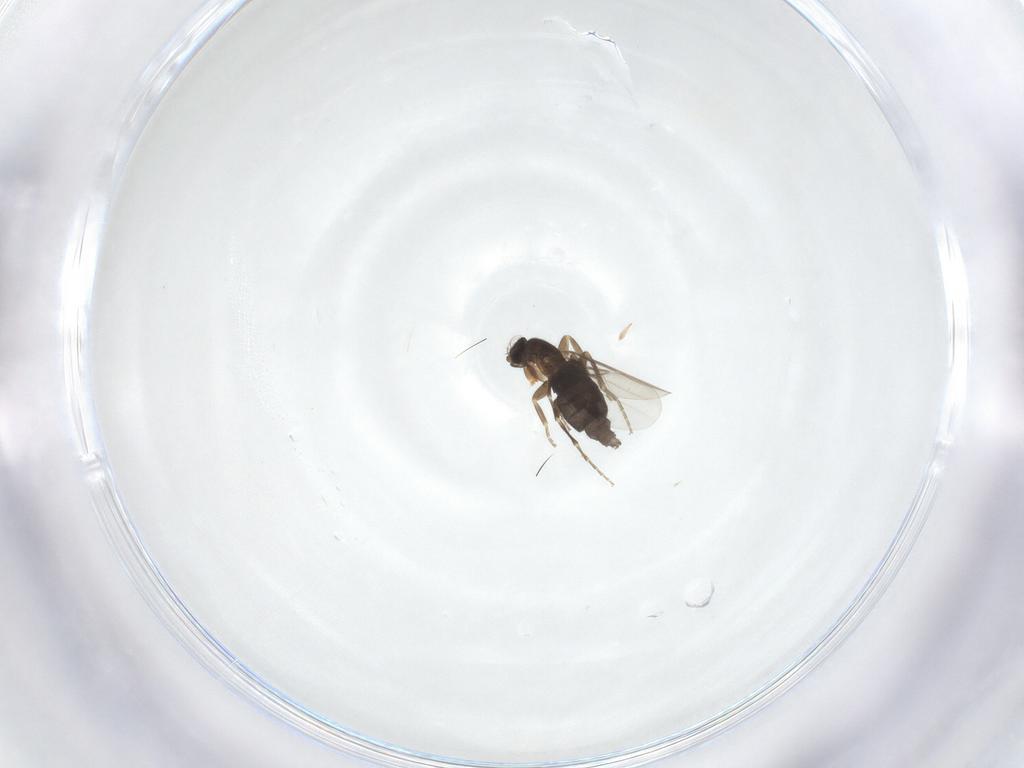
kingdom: Animalia
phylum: Arthropoda
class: Insecta
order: Diptera
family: Phoridae
